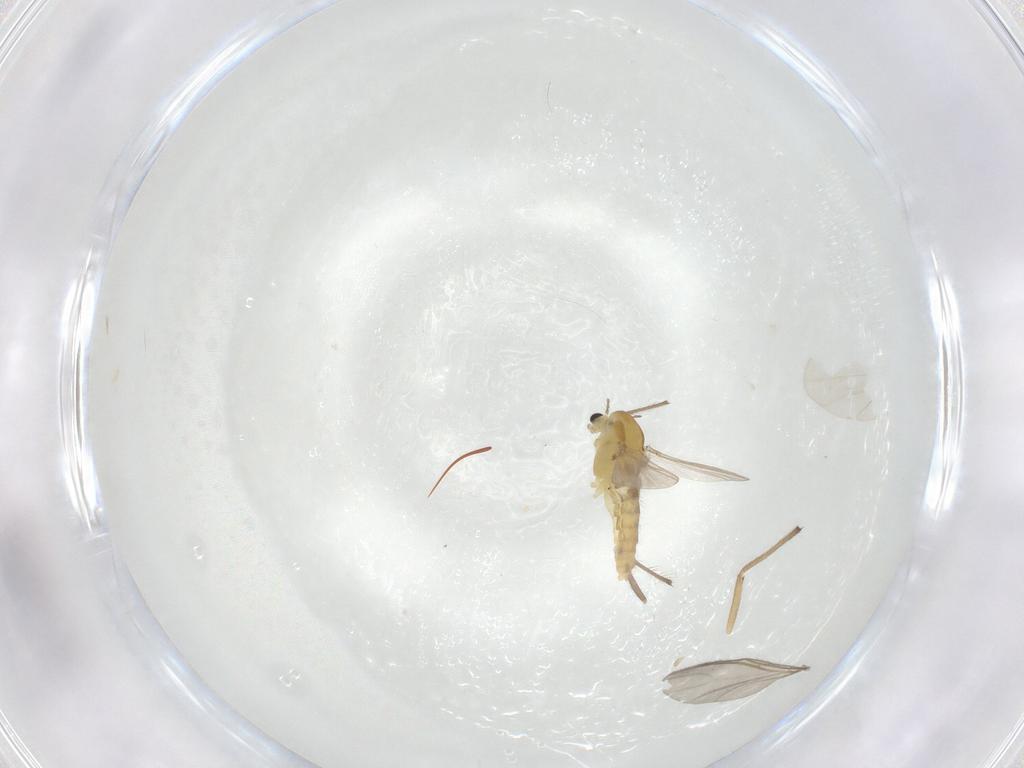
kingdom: Animalia
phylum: Arthropoda
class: Insecta
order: Diptera
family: Chironomidae
